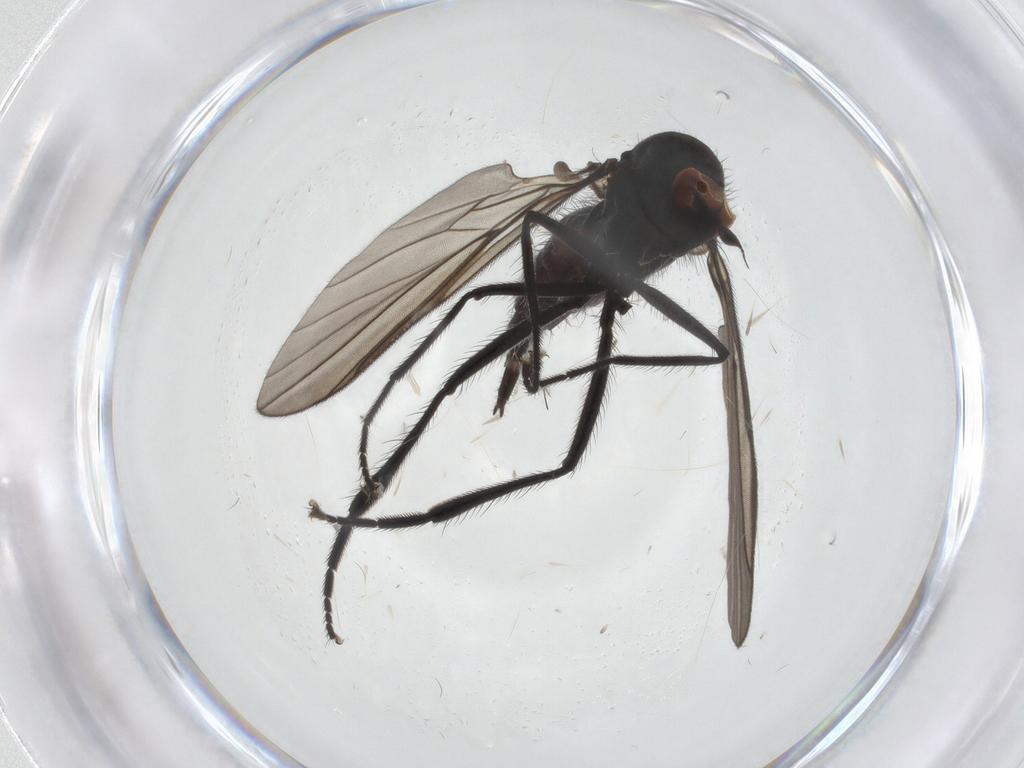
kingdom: Animalia
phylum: Arthropoda
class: Insecta
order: Diptera
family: Hybotidae
